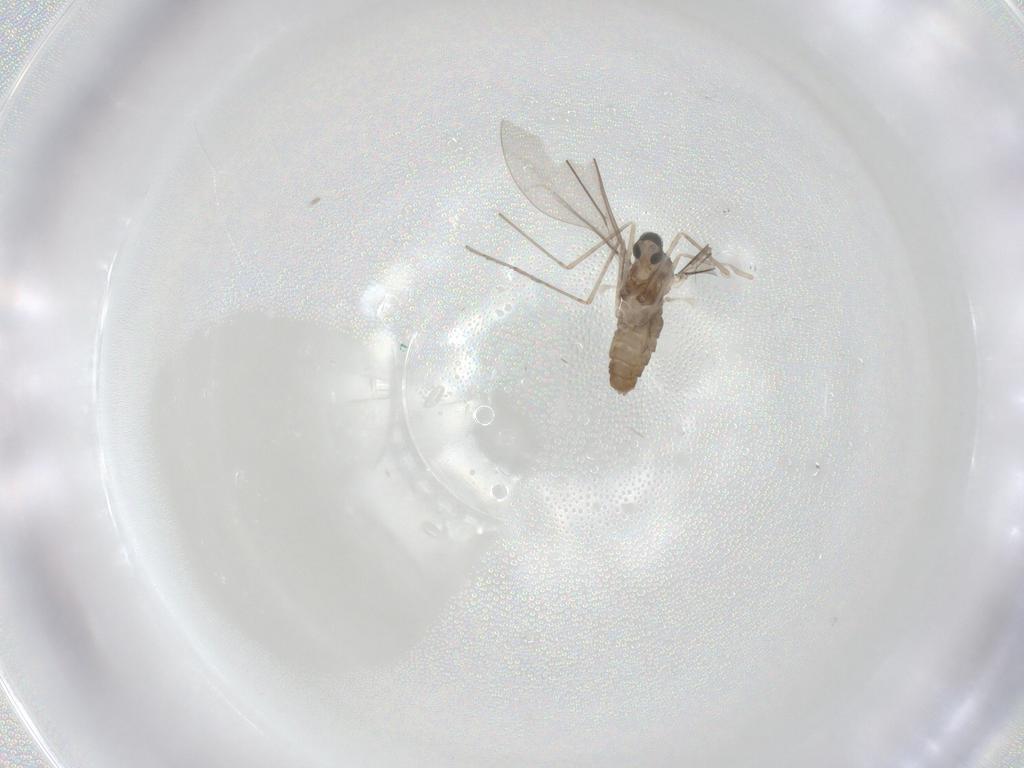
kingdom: Animalia
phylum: Arthropoda
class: Insecta
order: Diptera
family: Cecidomyiidae
